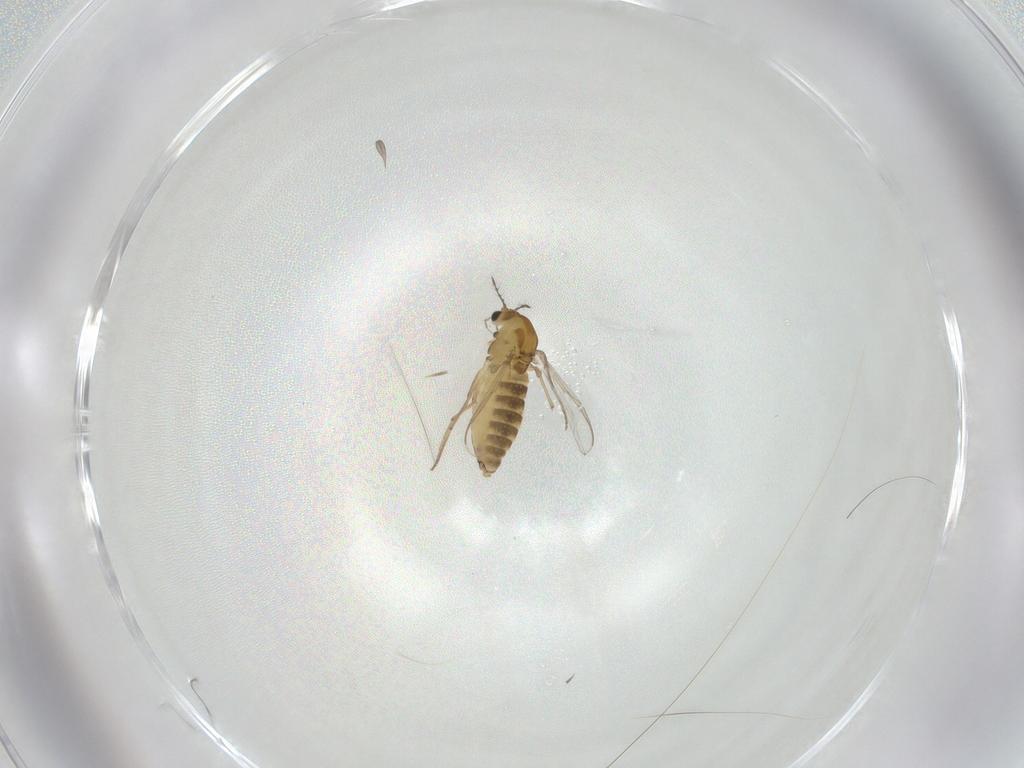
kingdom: Animalia
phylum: Arthropoda
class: Insecta
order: Diptera
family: Chironomidae
